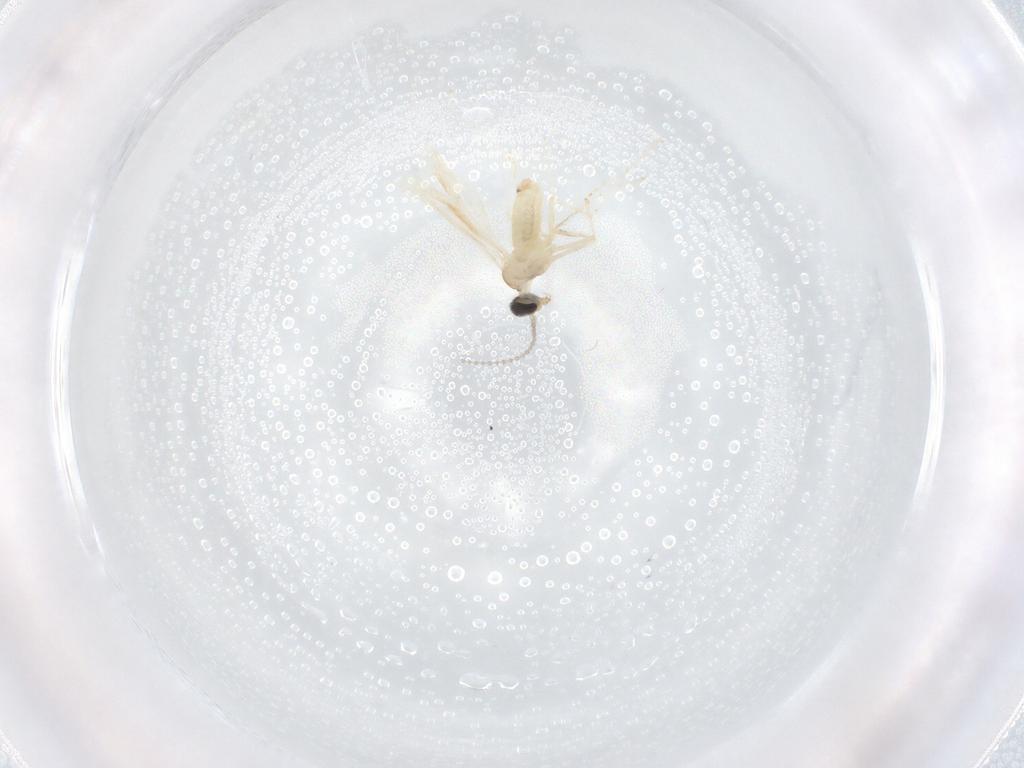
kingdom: Animalia
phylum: Arthropoda
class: Insecta
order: Diptera
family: Cecidomyiidae
